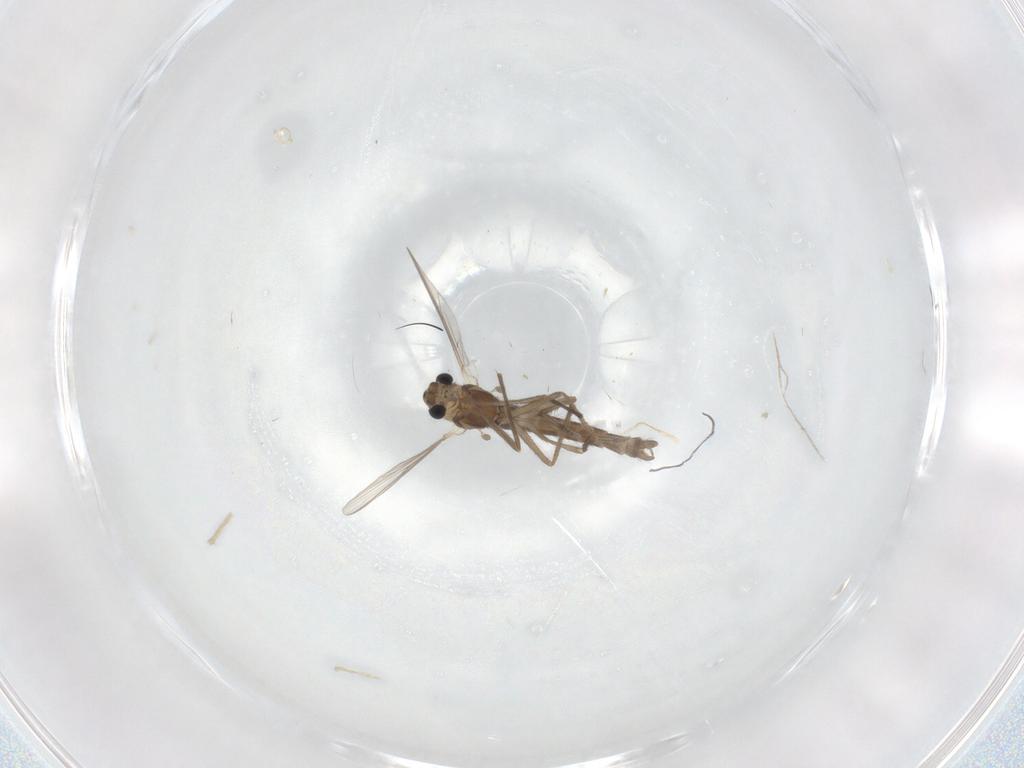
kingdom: Animalia
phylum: Arthropoda
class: Insecta
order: Diptera
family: Chironomidae
